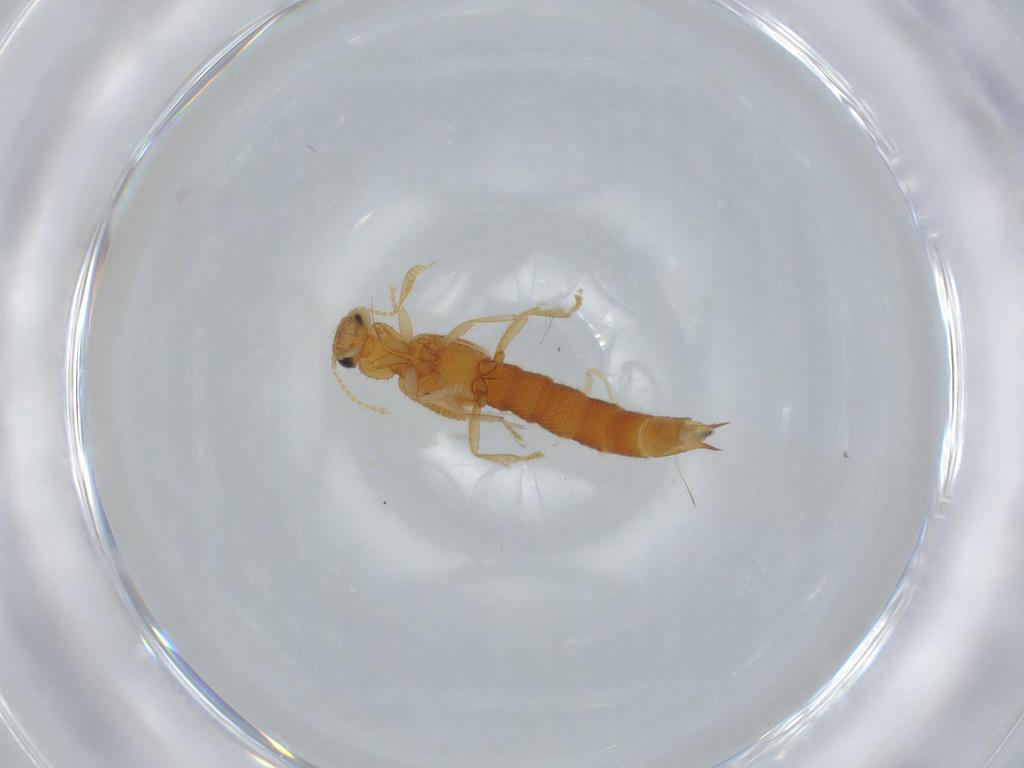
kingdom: Animalia
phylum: Arthropoda
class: Insecta
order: Coleoptera
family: Staphylinidae
